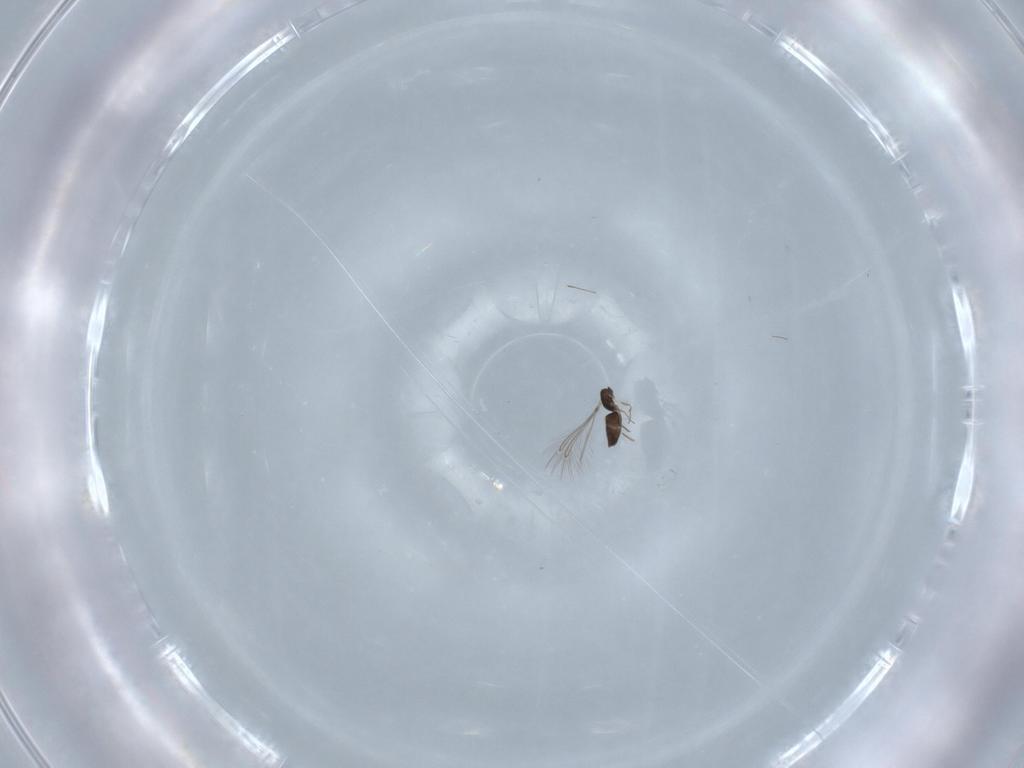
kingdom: Animalia
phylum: Arthropoda
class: Insecta
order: Hymenoptera
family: Mymaridae
